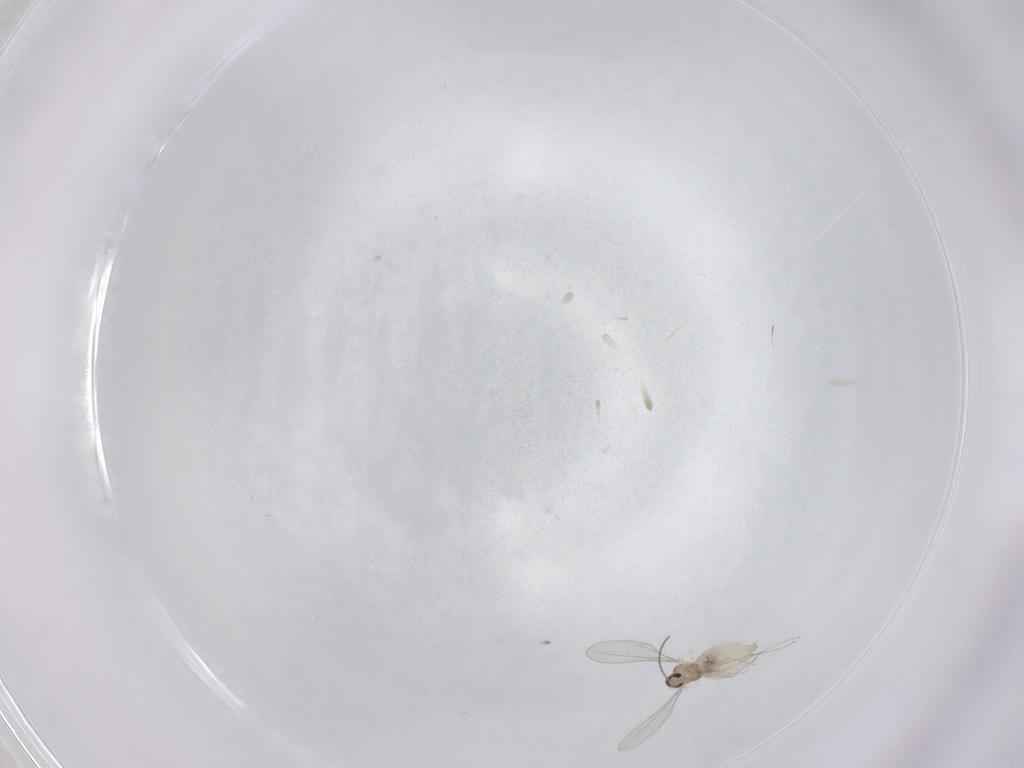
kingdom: Animalia
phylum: Arthropoda
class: Insecta
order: Diptera
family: Cecidomyiidae
